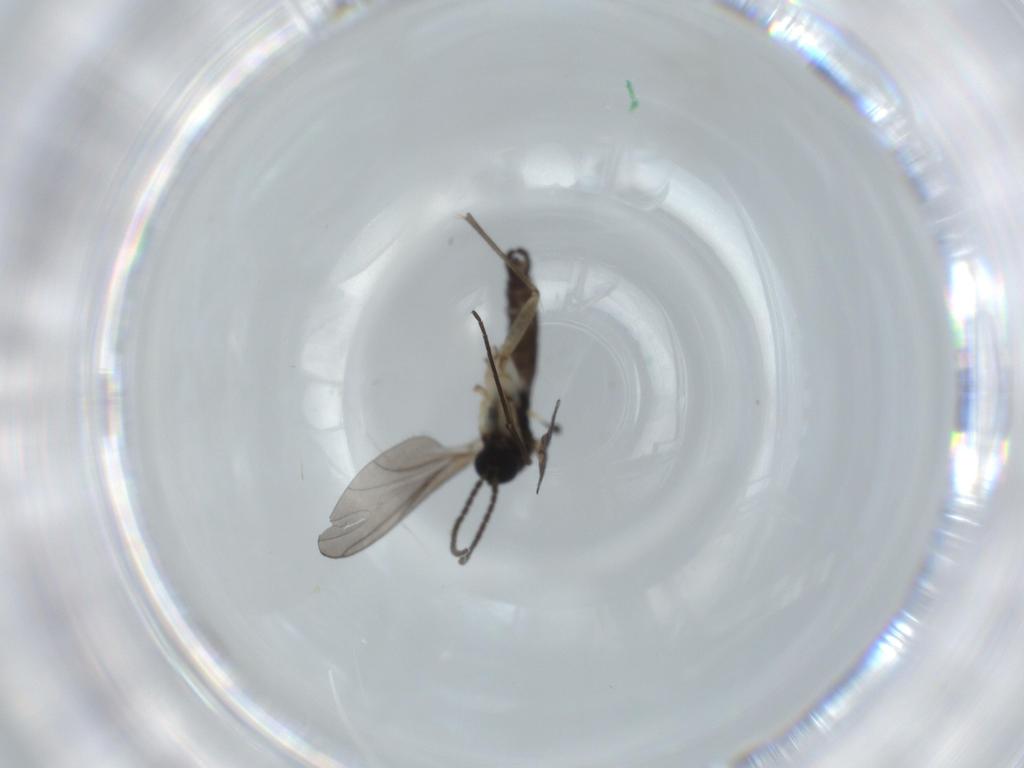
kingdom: Animalia
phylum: Arthropoda
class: Insecta
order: Diptera
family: Sciaridae
